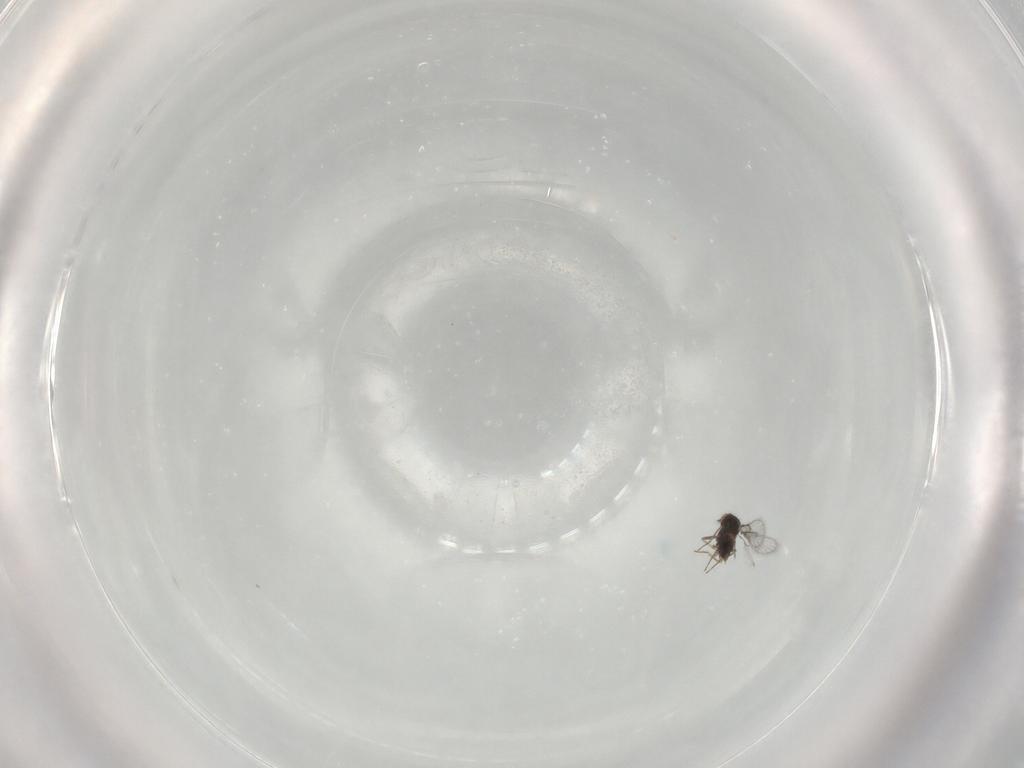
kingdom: Animalia
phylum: Arthropoda
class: Insecta
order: Hymenoptera
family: Trichogrammatidae
